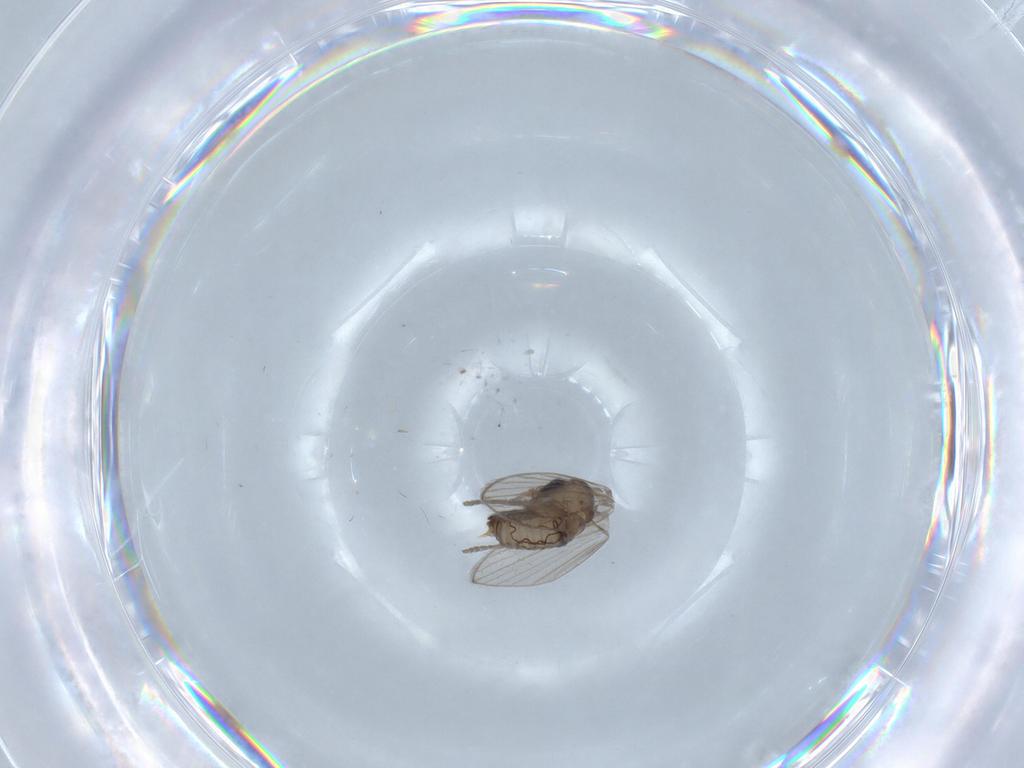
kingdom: Animalia
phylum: Arthropoda
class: Insecta
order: Diptera
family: Psychodidae
